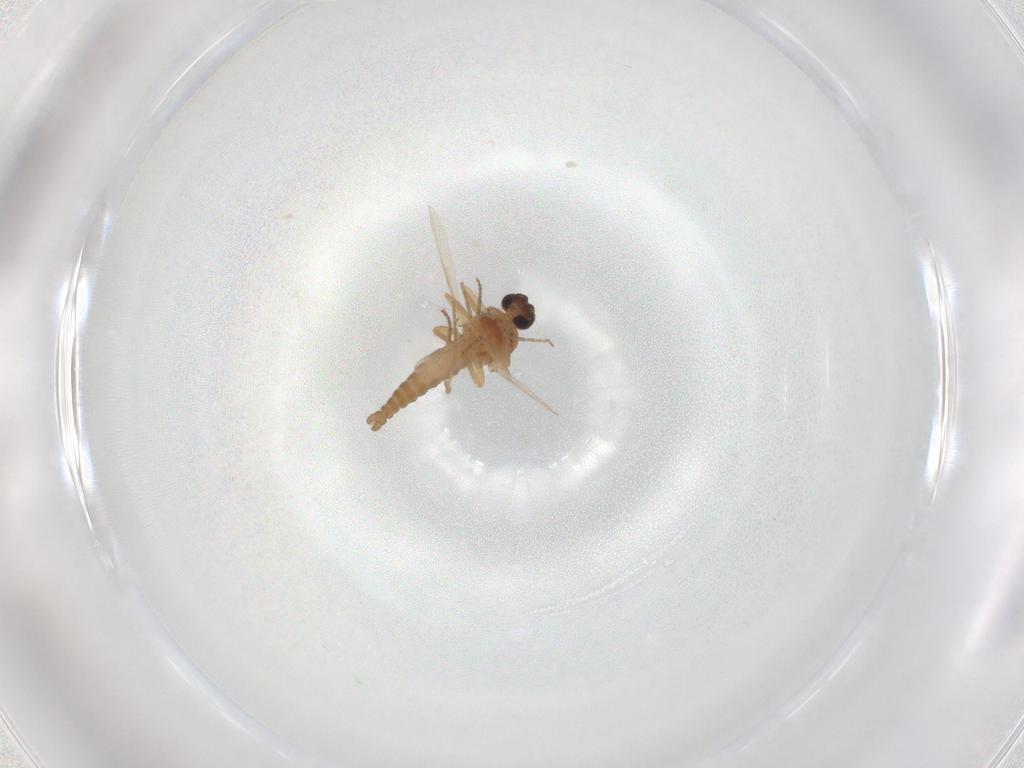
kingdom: Animalia
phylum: Arthropoda
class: Insecta
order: Diptera
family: Ceratopogonidae
